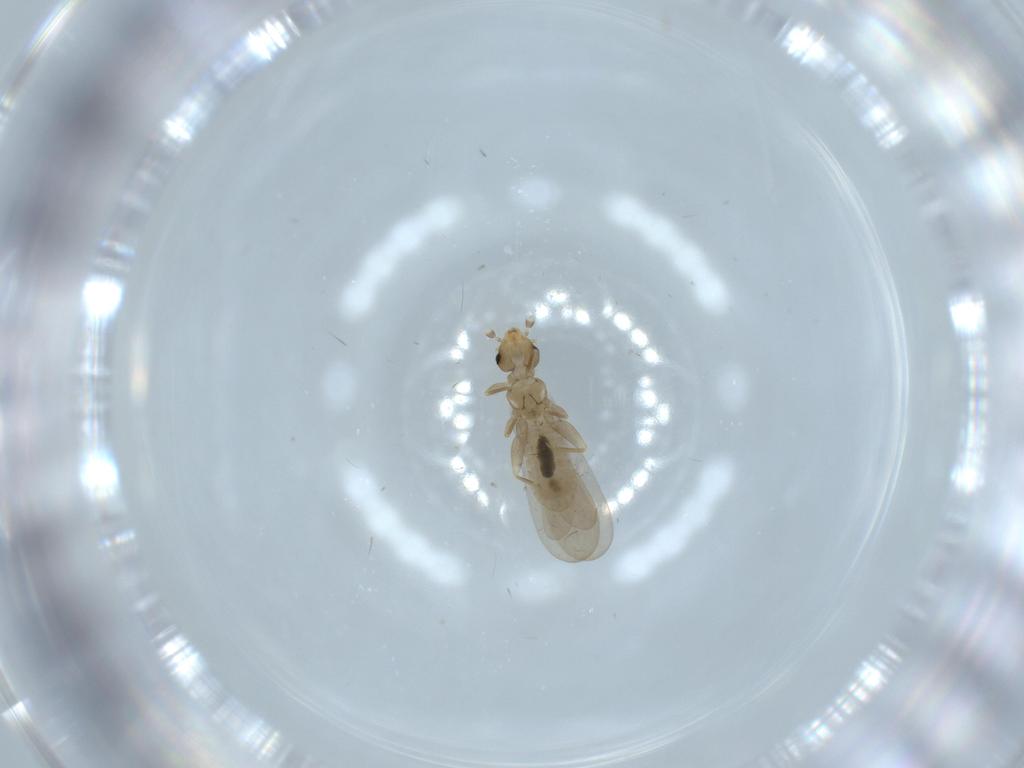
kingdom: Animalia
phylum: Arthropoda
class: Insecta
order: Psocodea
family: Liposcelididae
